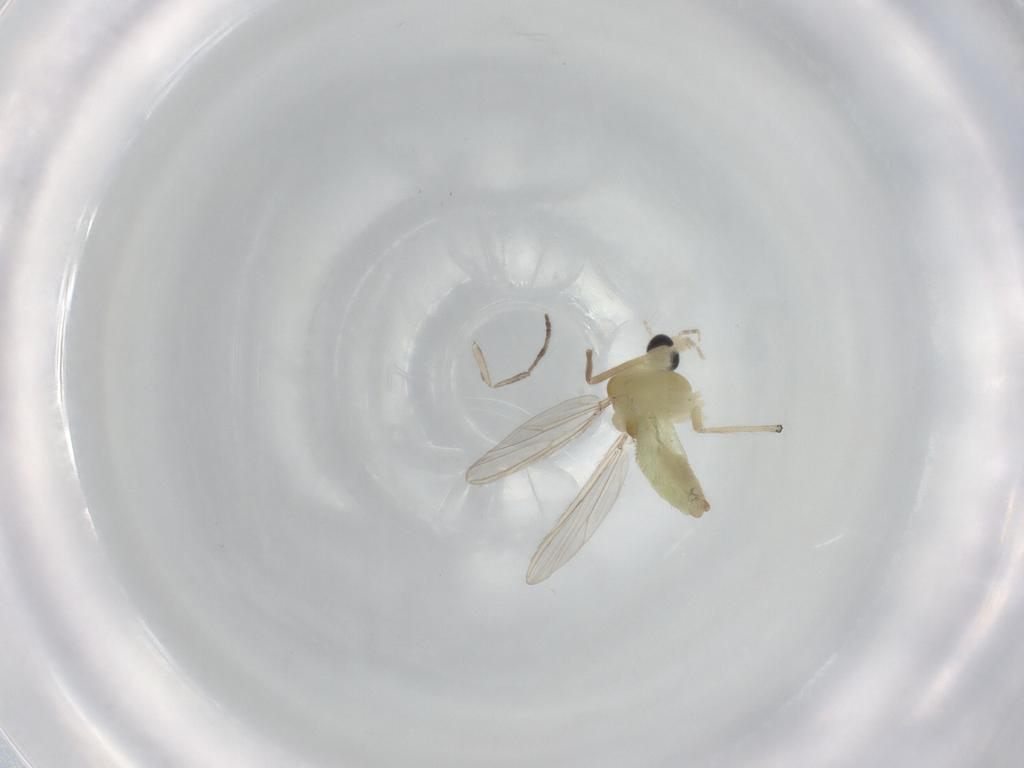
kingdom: Animalia
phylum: Arthropoda
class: Insecta
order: Diptera
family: Chironomidae
